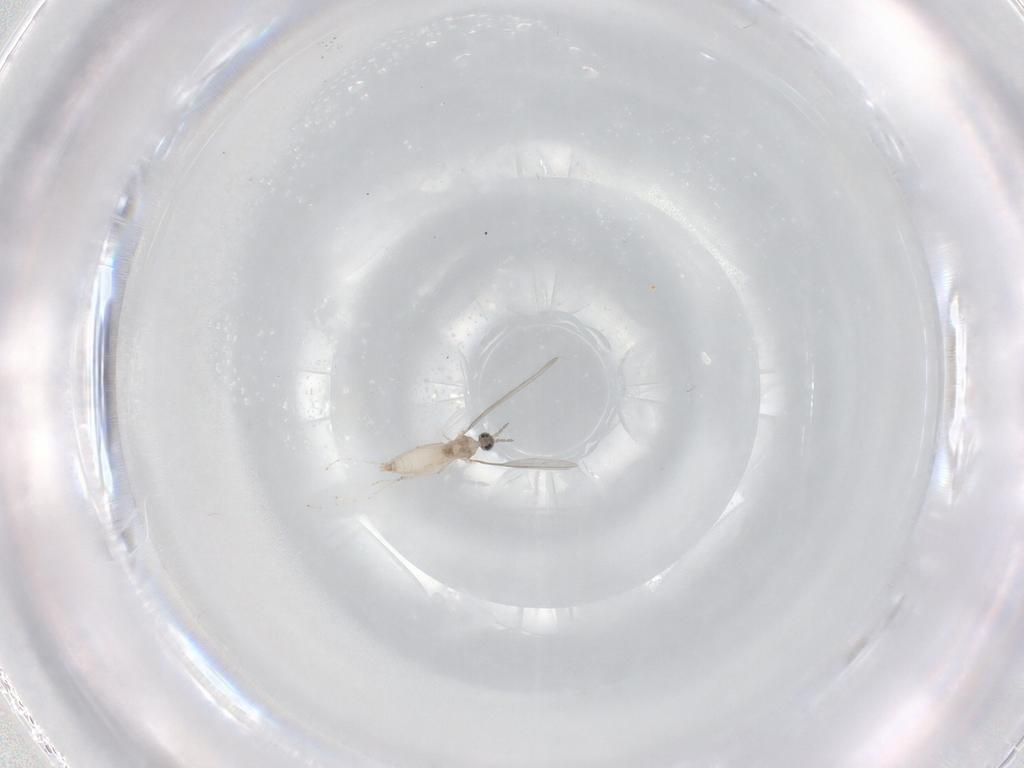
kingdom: Animalia
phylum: Arthropoda
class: Insecta
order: Diptera
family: Cecidomyiidae
